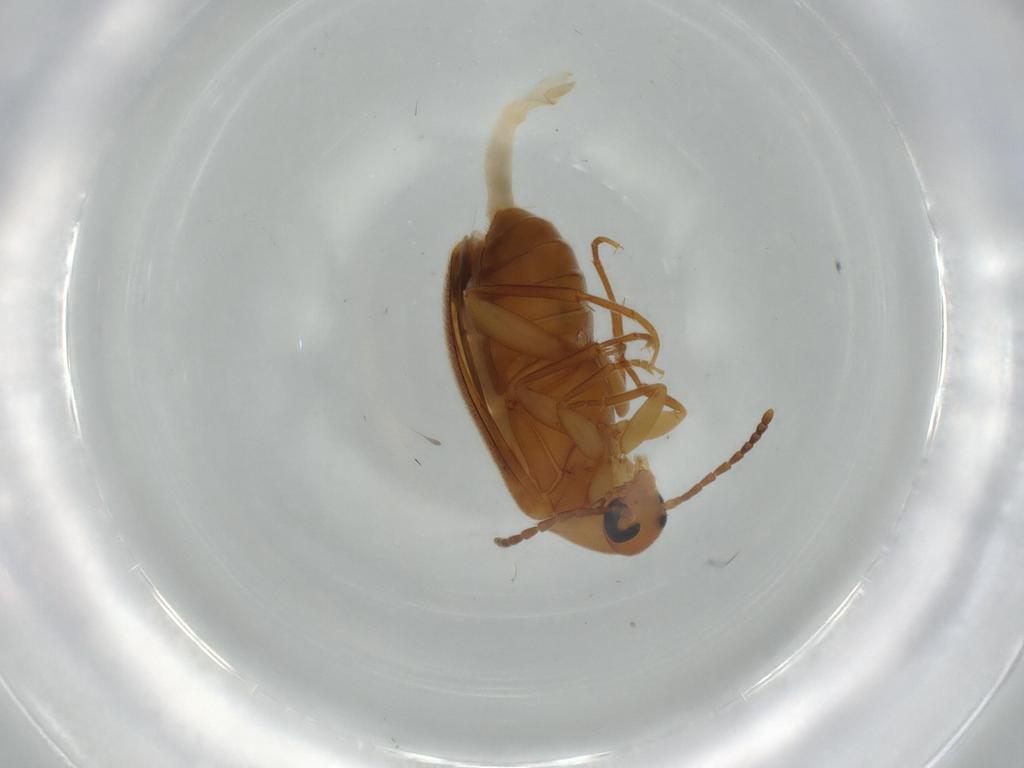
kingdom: Animalia
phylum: Arthropoda
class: Insecta
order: Coleoptera
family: Scraptiidae
